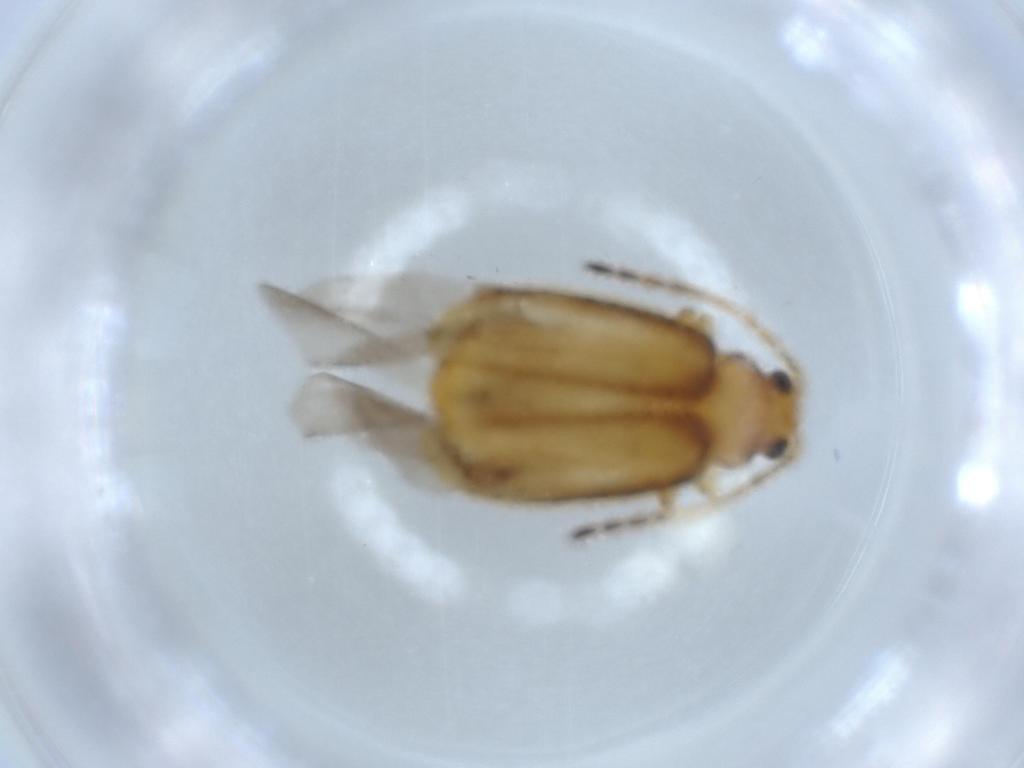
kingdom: Animalia
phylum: Arthropoda
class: Insecta
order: Coleoptera
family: Chrysomelidae
